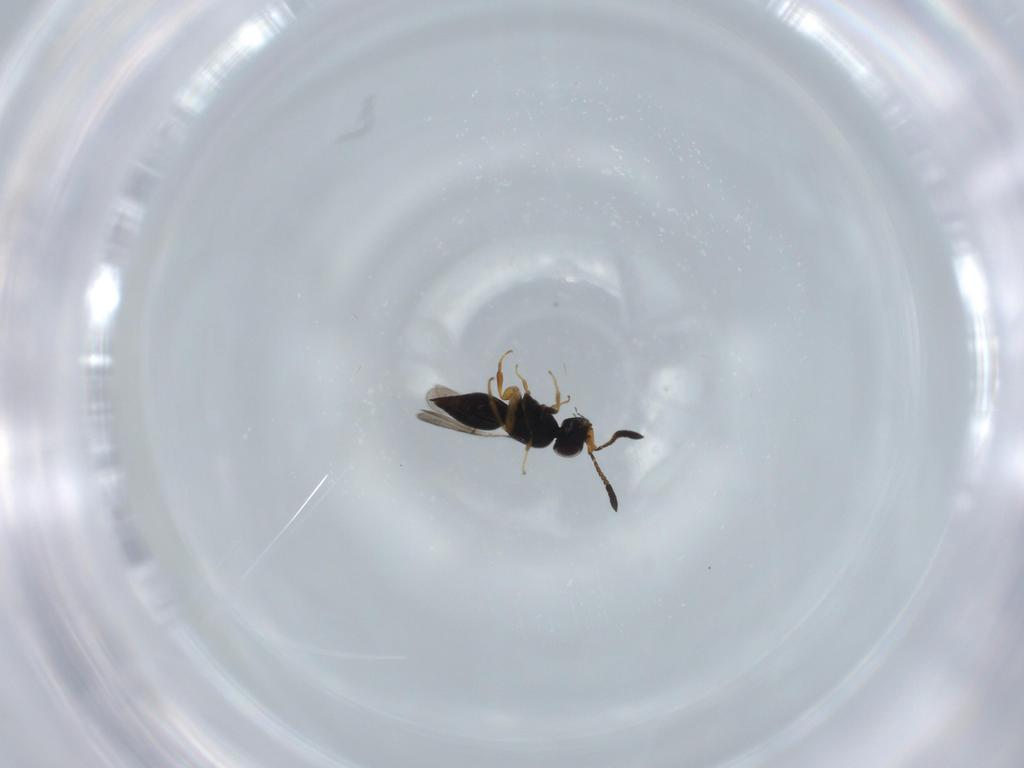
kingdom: Animalia
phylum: Arthropoda
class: Insecta
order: Hymenoptera
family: Ceraphronidae
